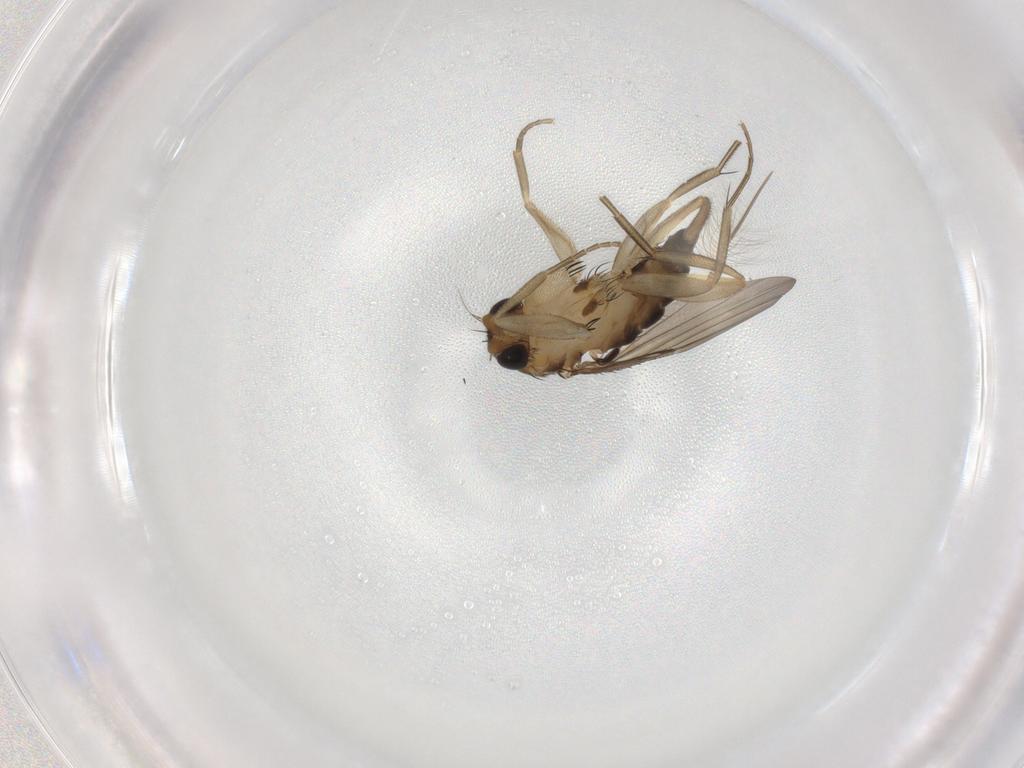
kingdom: Animalia
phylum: Arthropoda
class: Insecta
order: Diptera
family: Phoridae
